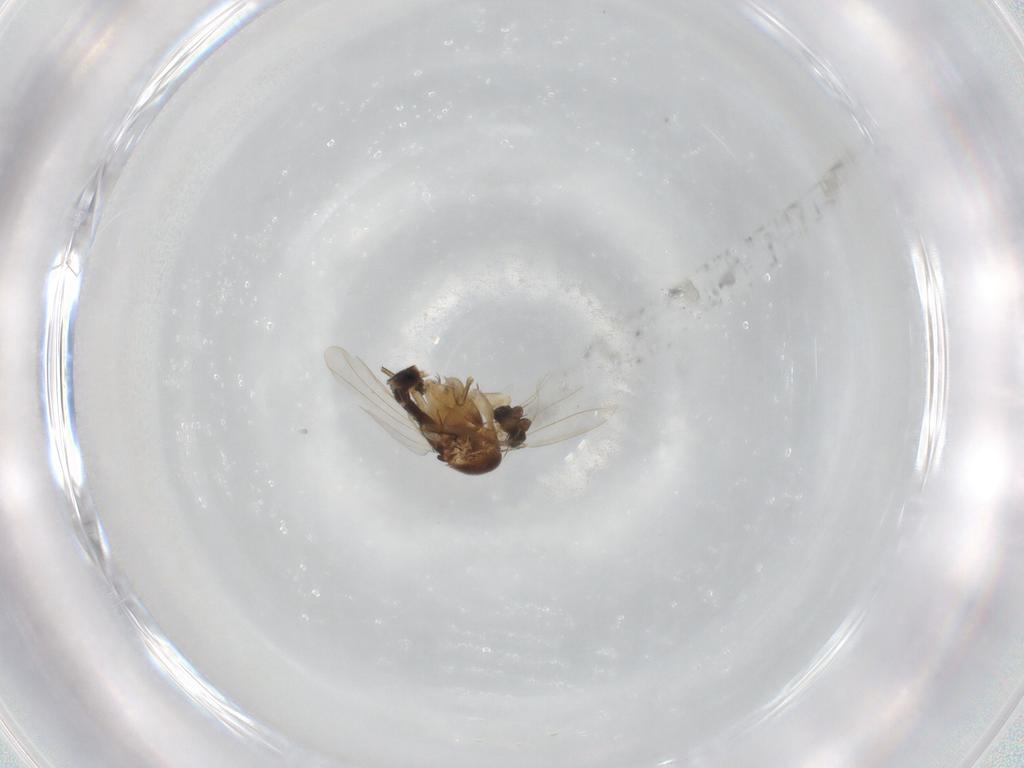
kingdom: Animalia
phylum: Arthropoda
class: Insecta
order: Diptera
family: Phoridae
